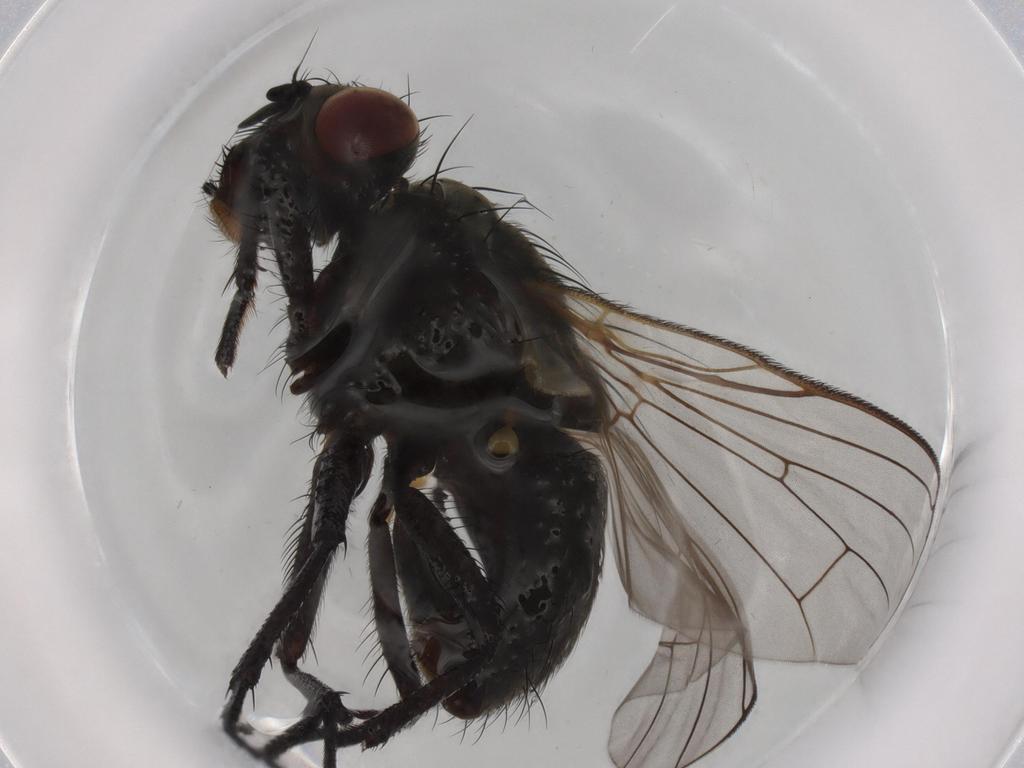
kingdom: Animalia
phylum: Arthropoda
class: Insecta
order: Diptera
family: Muscidae
